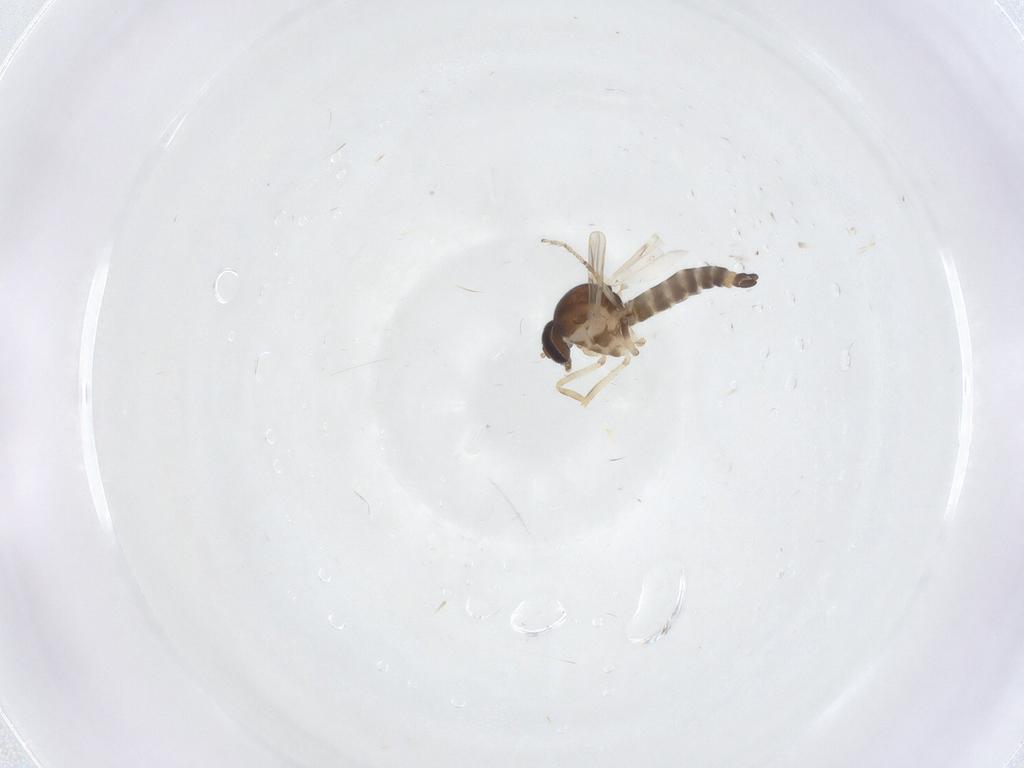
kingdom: Animalia
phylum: Arthropoda
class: Insecta
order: Diptera
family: Ceratopogonidae
